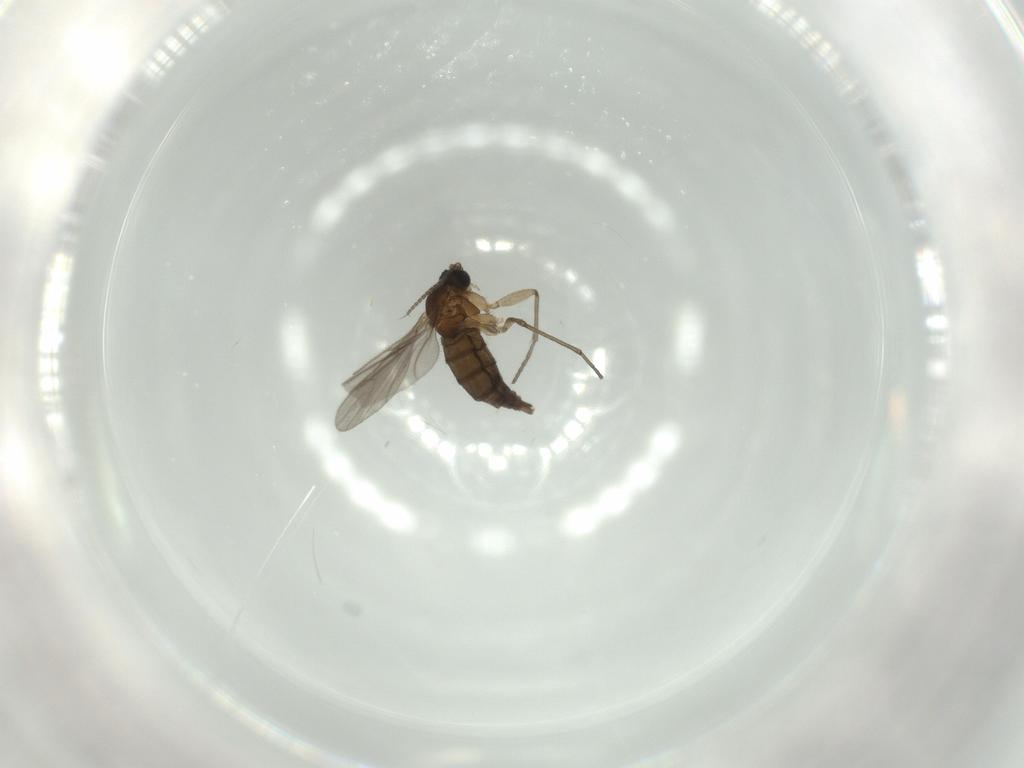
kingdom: Animalia
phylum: Arthropoda
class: Insecta
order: Diptera
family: Sciaridae
